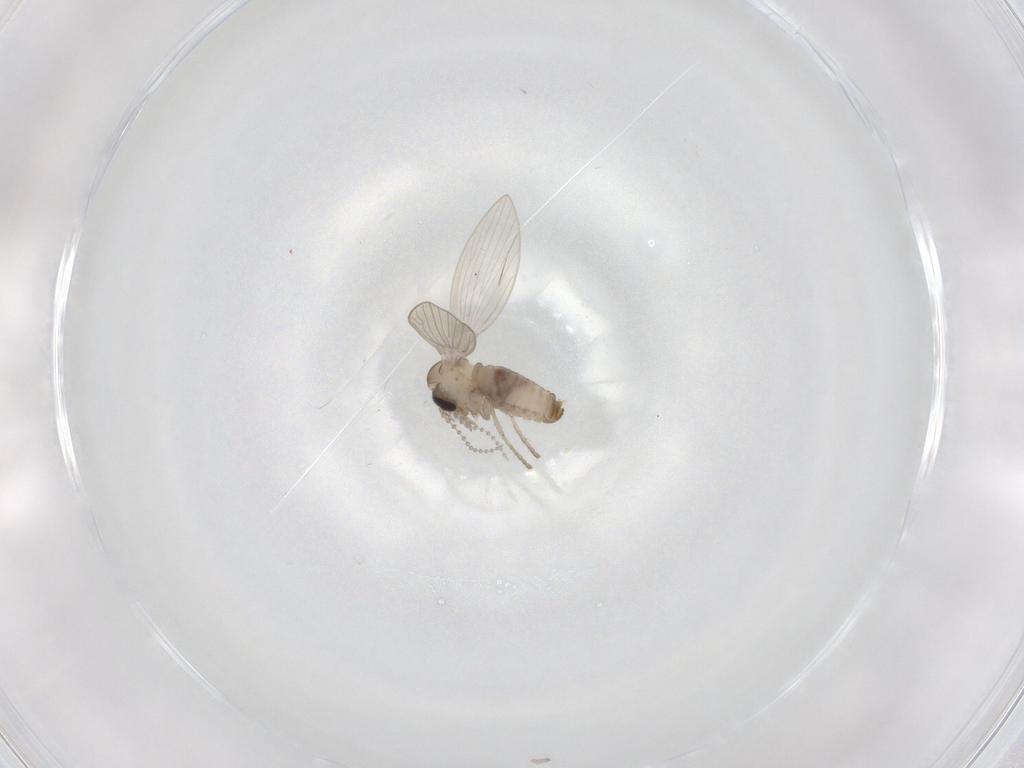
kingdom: Animalia
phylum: Arthropoda
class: Insecta
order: Diptera
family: Psychodidae
